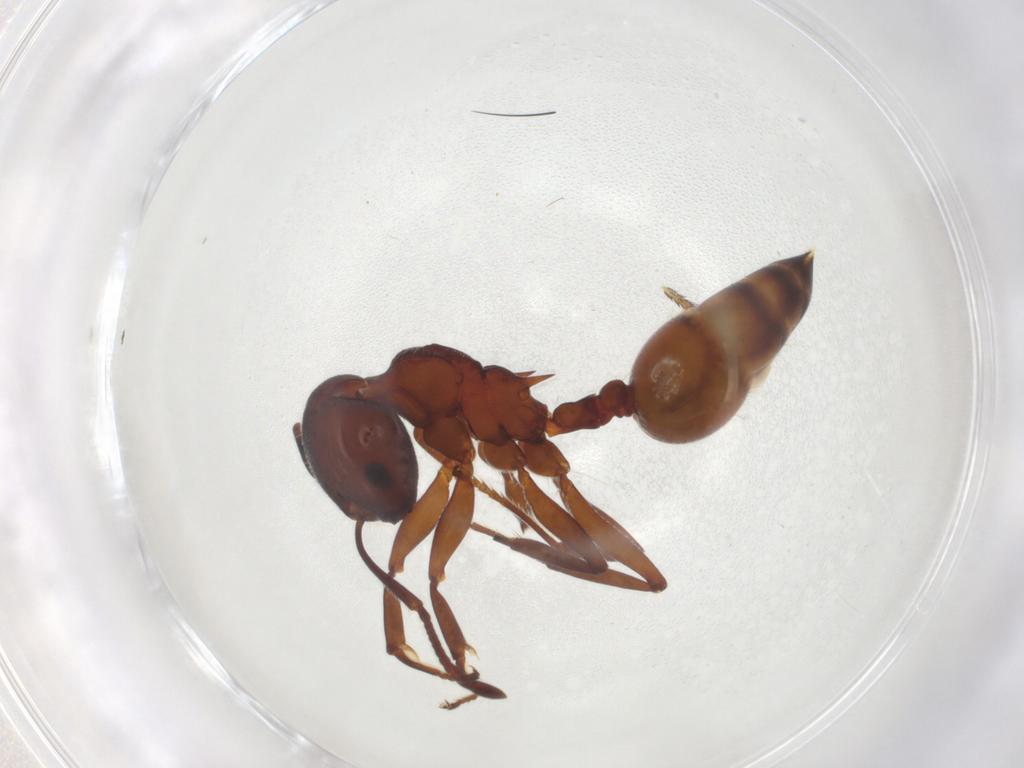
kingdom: Animalia
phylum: Arthropoda
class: Insecta
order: Hymenoptera
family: Formicidae
